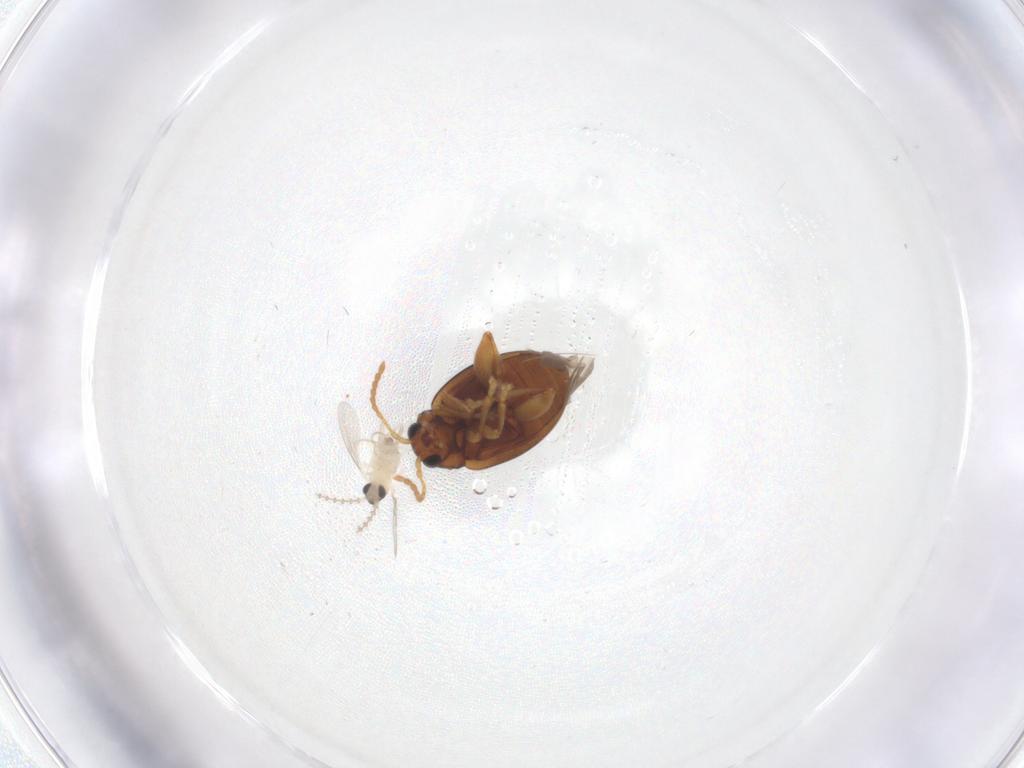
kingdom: Animalia
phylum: Arthropoda
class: Insecta
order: Coleoptera
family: Chrysomelidae
